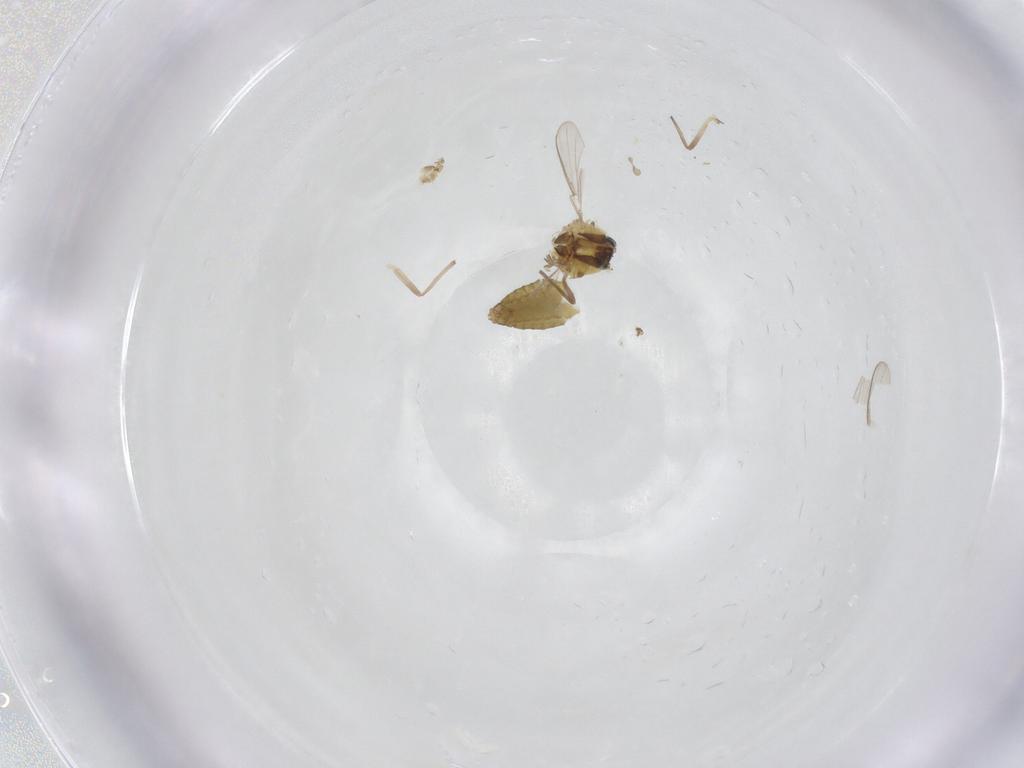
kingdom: Animalia
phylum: Arthropoda
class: Insecta
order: Diptera
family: Chironomidae
